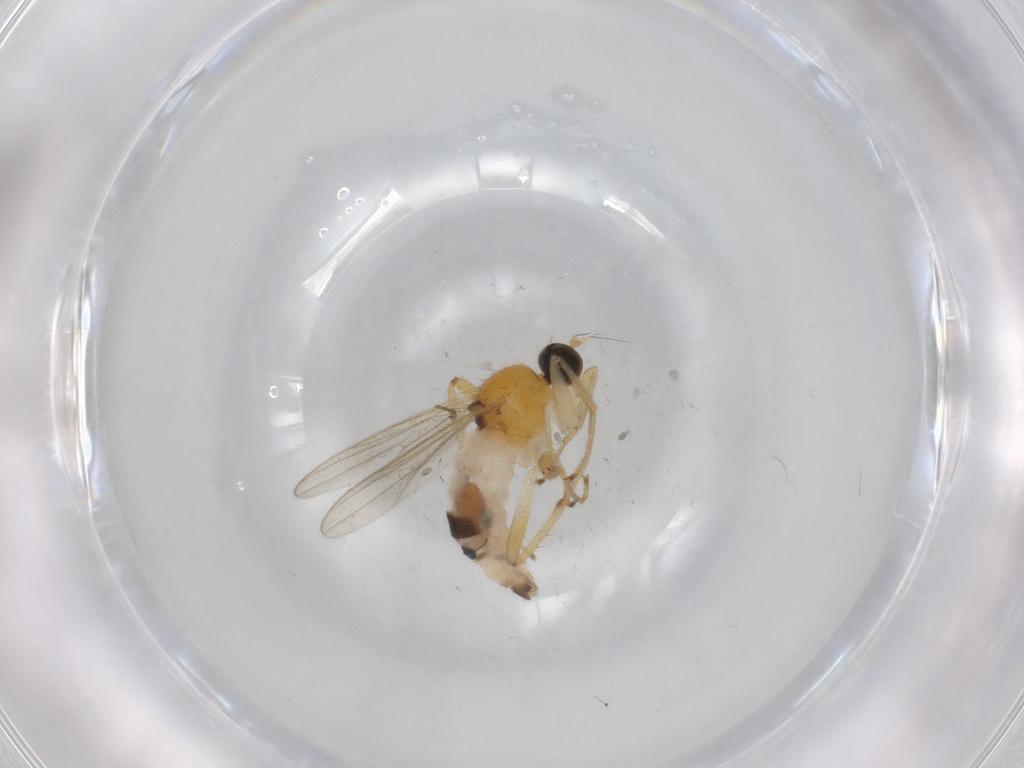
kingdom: Animalia
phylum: Arthropoda
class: Insecta
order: Diptera
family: Hybotidae
